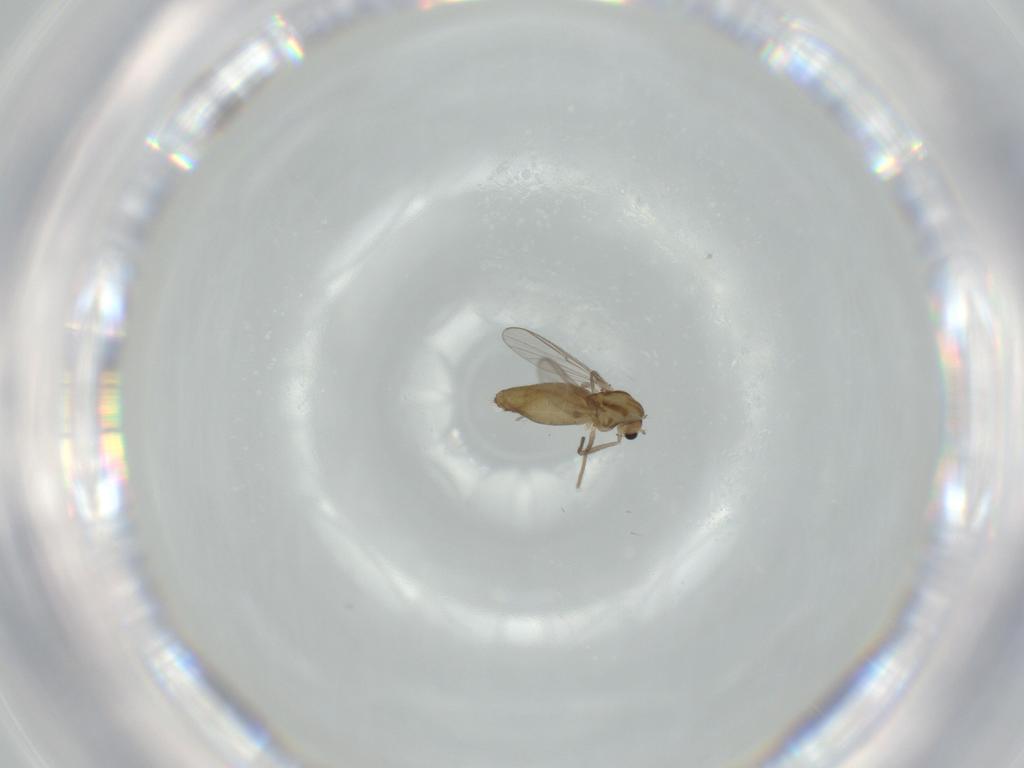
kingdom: Animalia
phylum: Arthropoda
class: Insecta
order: Diptera
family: Chironomidae
